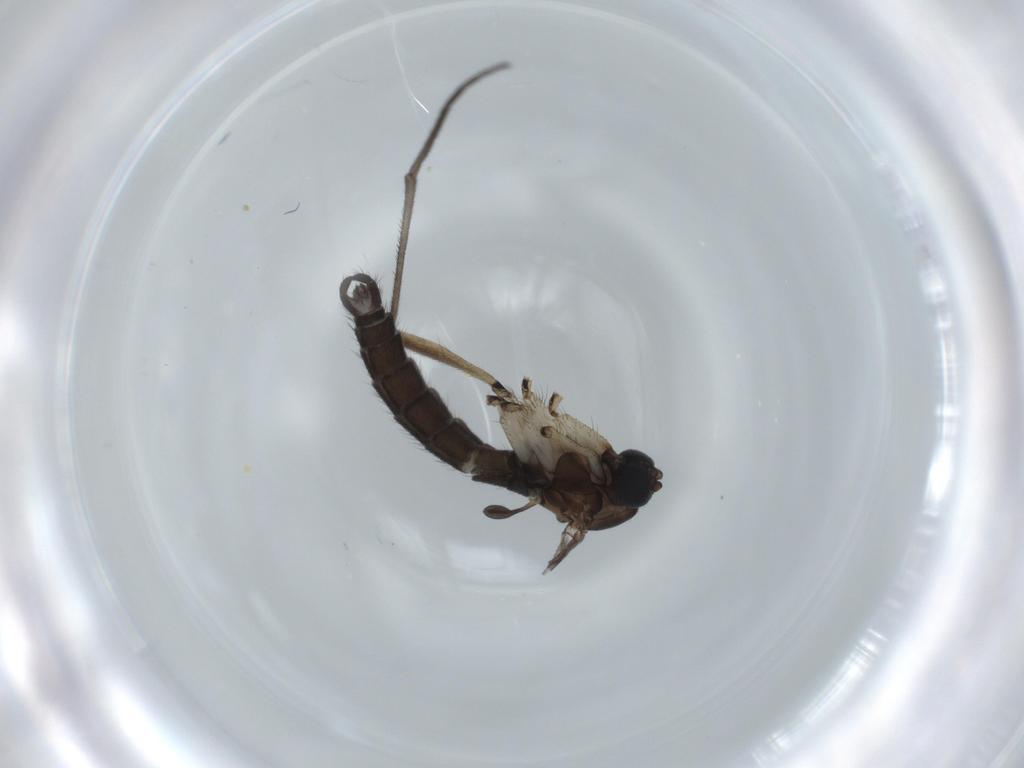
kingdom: Animalia
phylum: Arthropoda
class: Insecta
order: Diptera
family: Sciaridae
